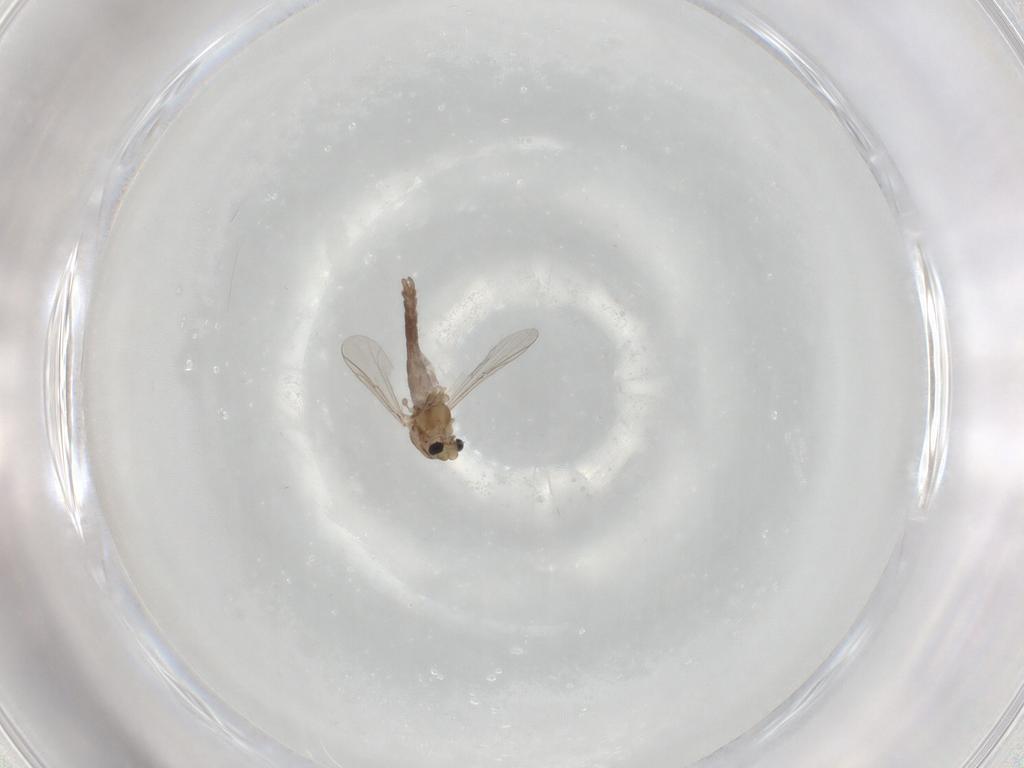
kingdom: Animalia
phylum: Arthropoda
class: Insecta
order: Diptera
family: Chironomidae
